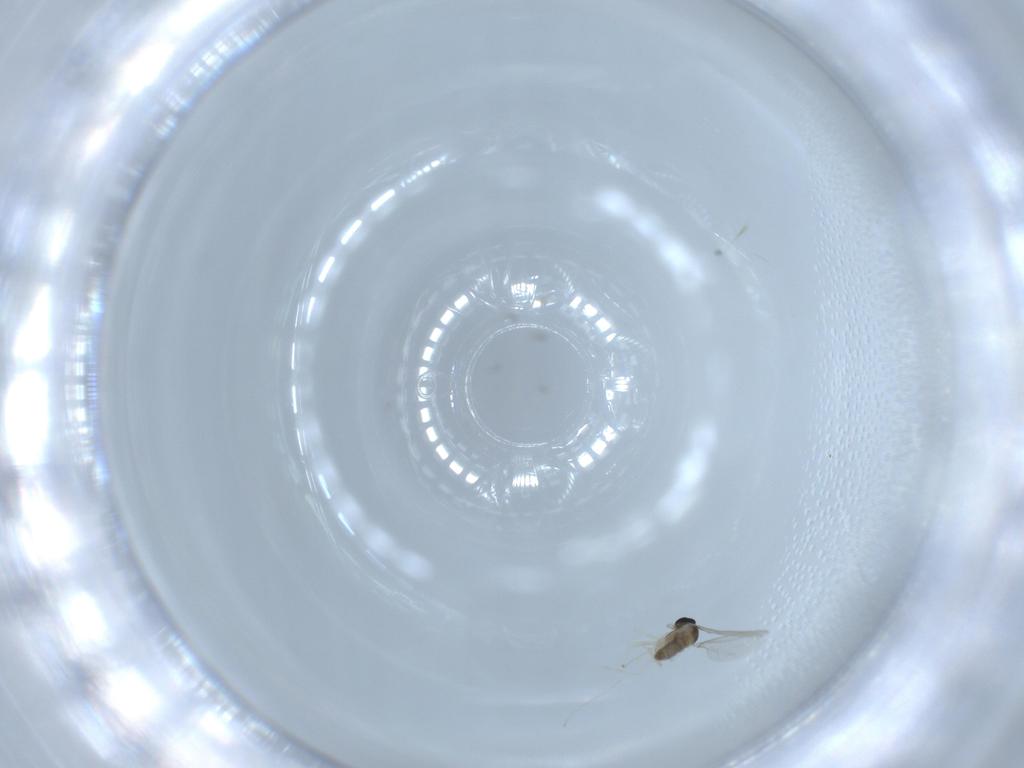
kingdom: Animalia
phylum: Arthropoda
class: Insecta
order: Diptera
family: Cecidomyiidae
